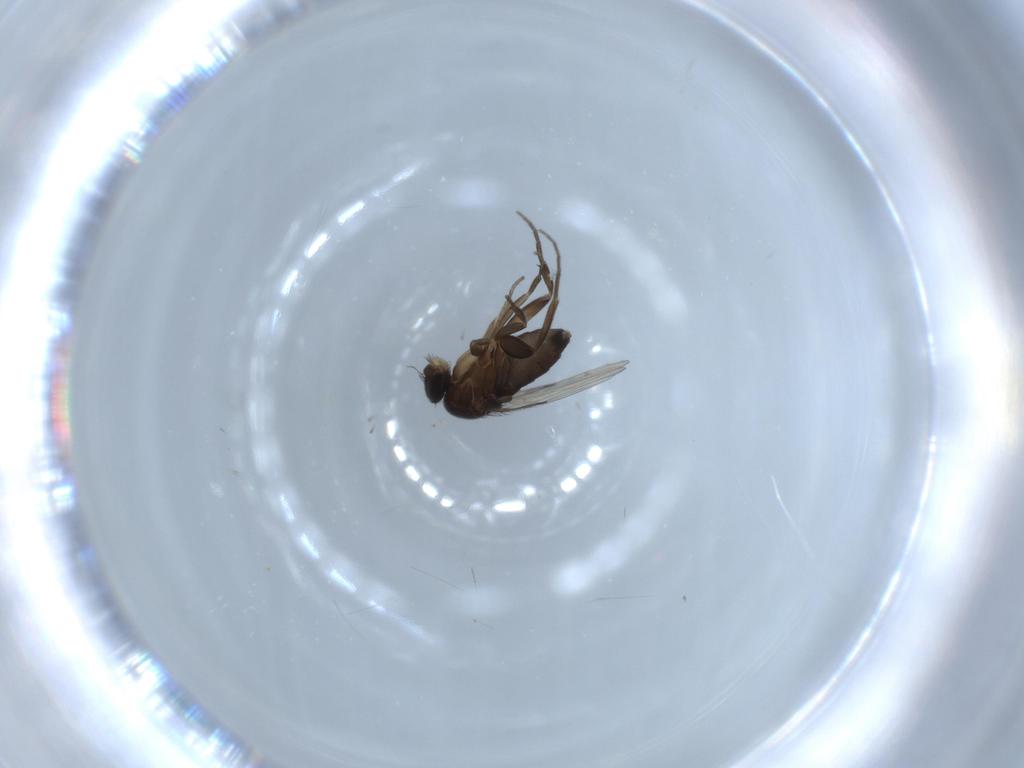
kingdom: Animalia
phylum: Arthropoda
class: Insecta
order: Diptera
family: Phoridae
